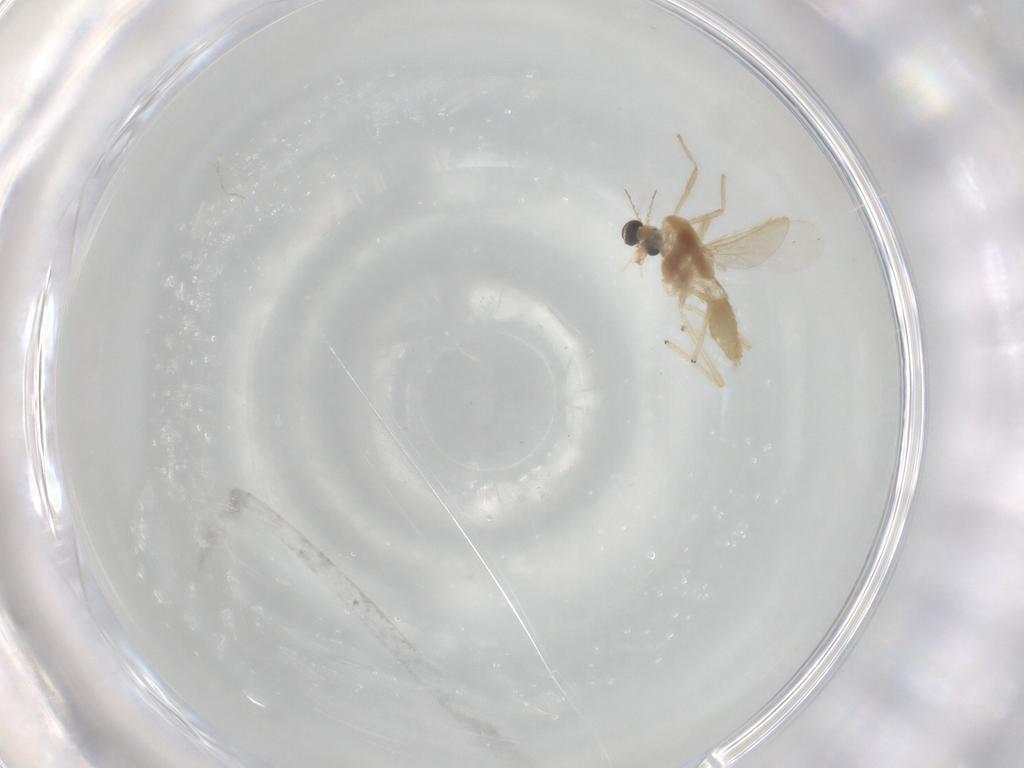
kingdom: Animalia
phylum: Arthropoda
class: Insecta
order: Diptera
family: Chironomidae
